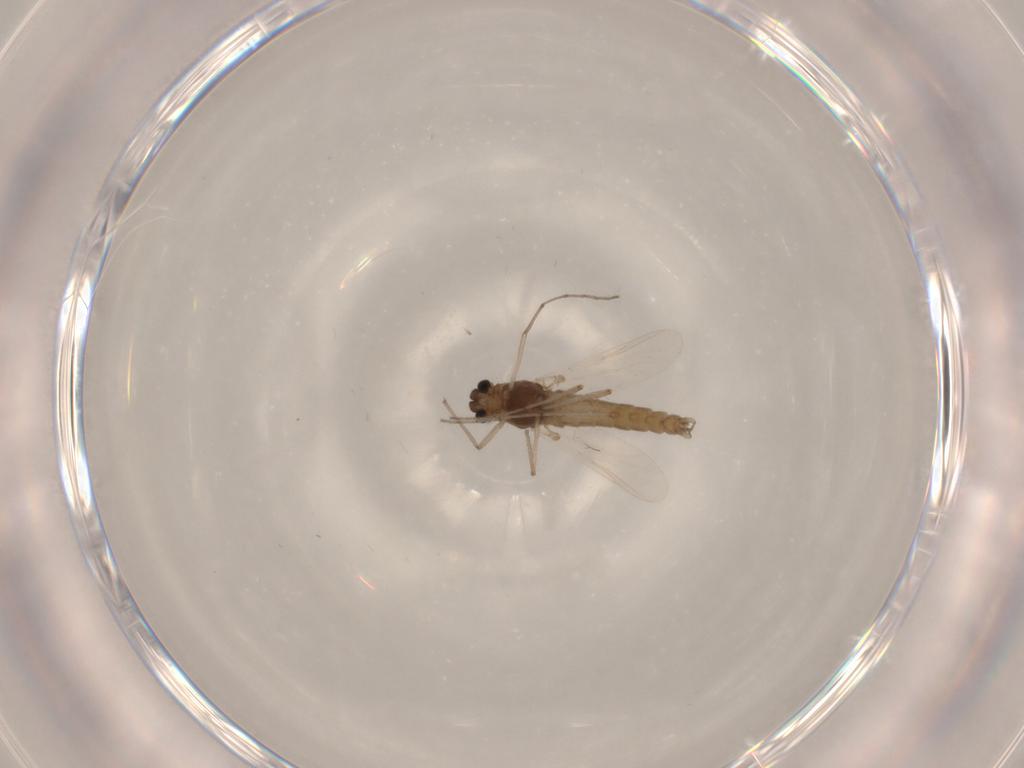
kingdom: Animalia
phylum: Arthropoda
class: Insecta
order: Diptera
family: Chironomidae
